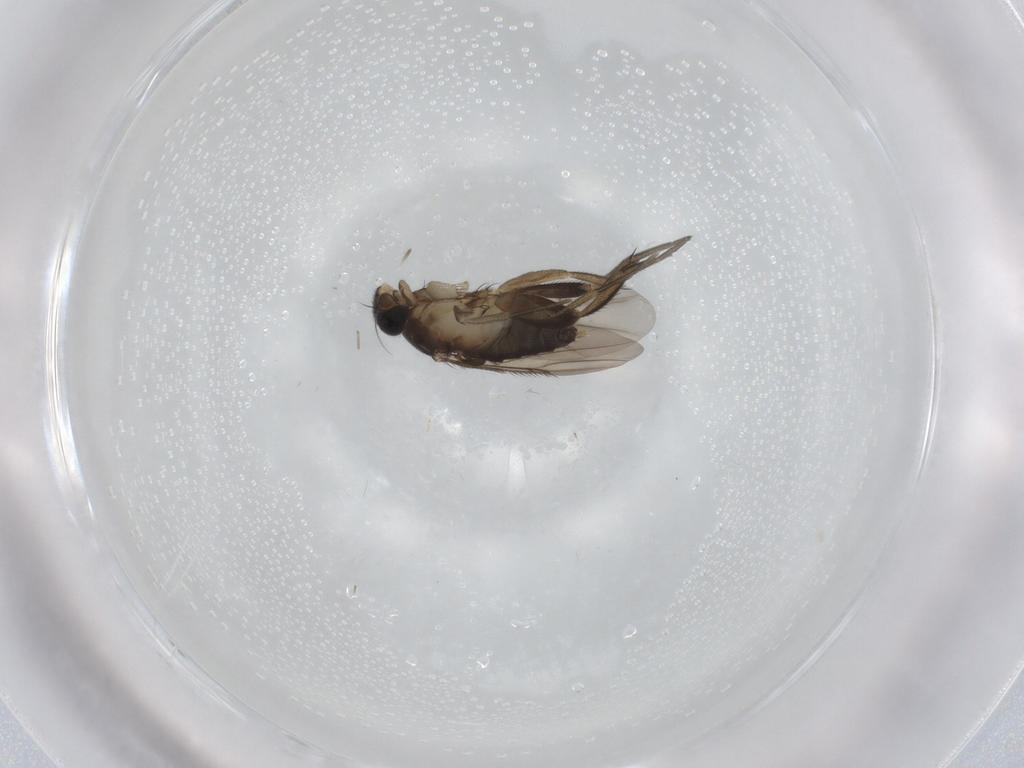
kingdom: Animalia
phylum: Arthropoda
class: Insecta
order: Diptera
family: Phoridae
